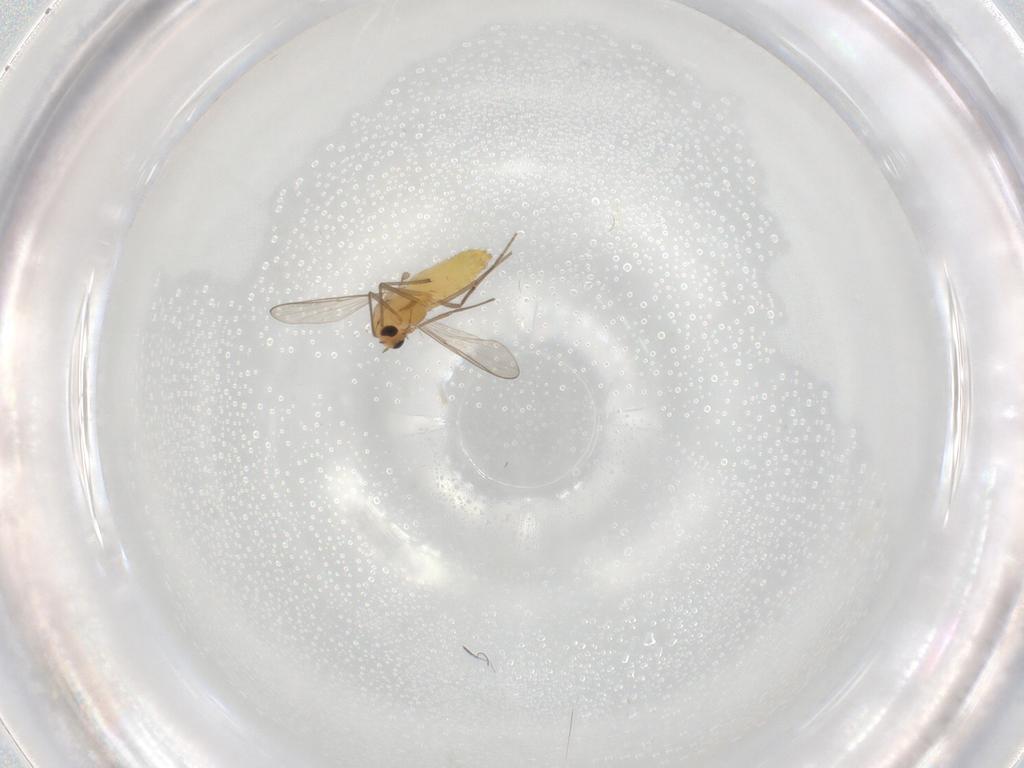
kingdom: Animalia
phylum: Arthropoda
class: Insecta
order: Diptera
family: Chironomidae
